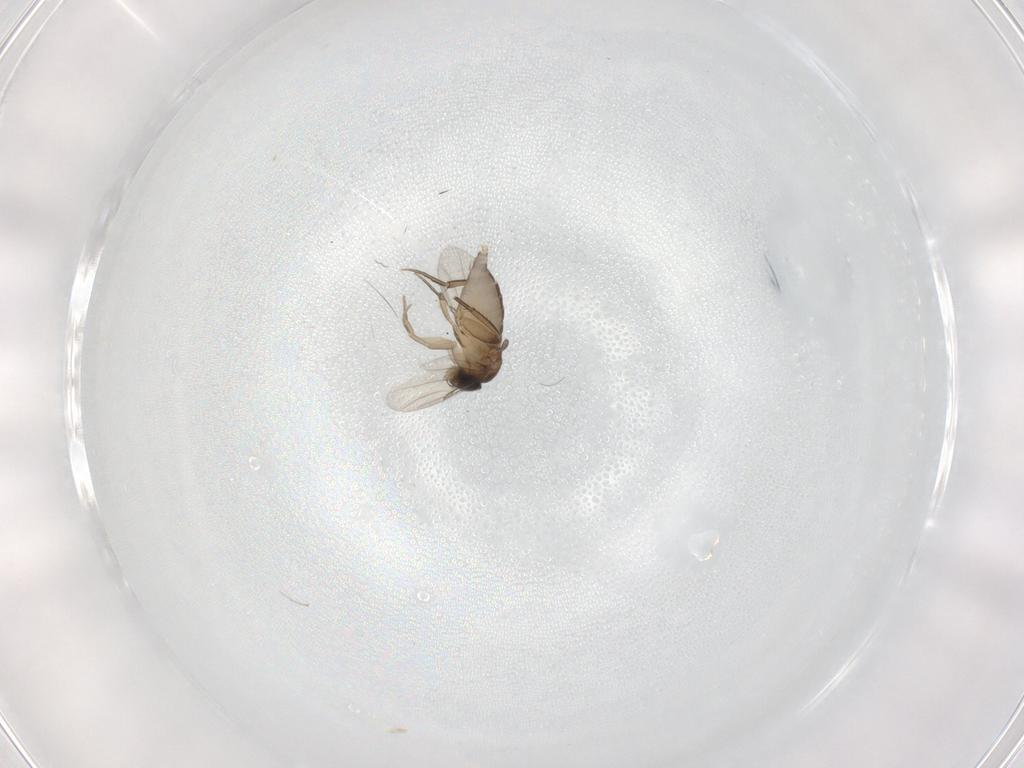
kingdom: Animalia
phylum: Arthropoda
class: Insecta
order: Diptera
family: Phoridae
